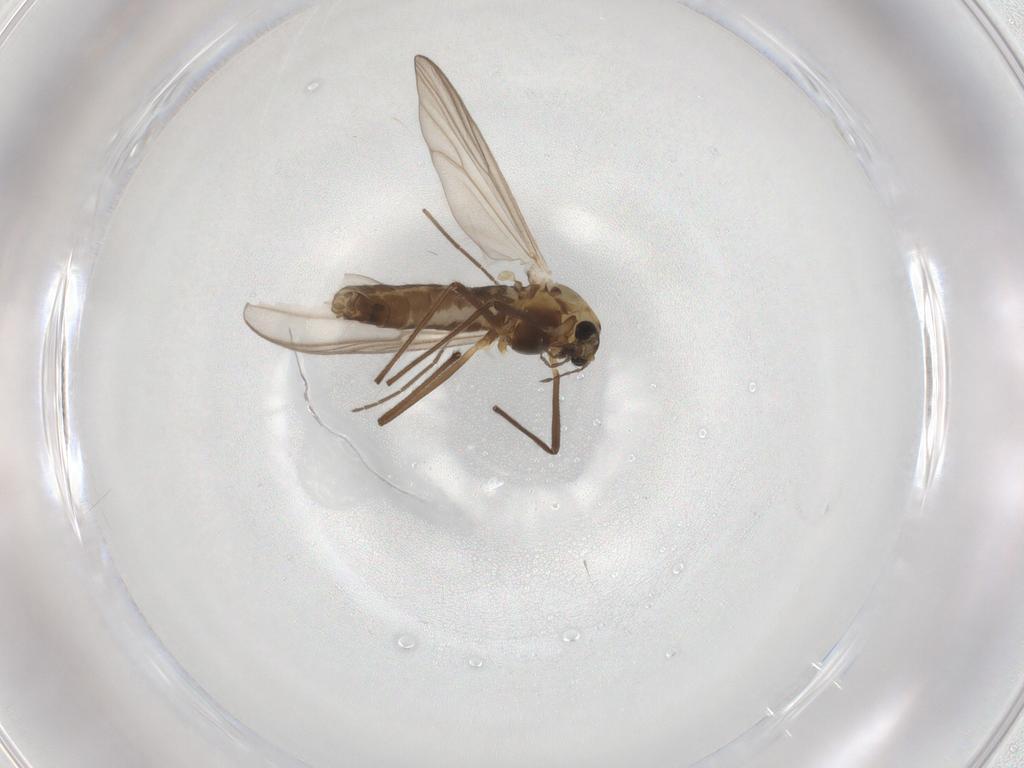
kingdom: Animalia
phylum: Arthropoda
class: Insecta
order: Diptera
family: Chironomidae
